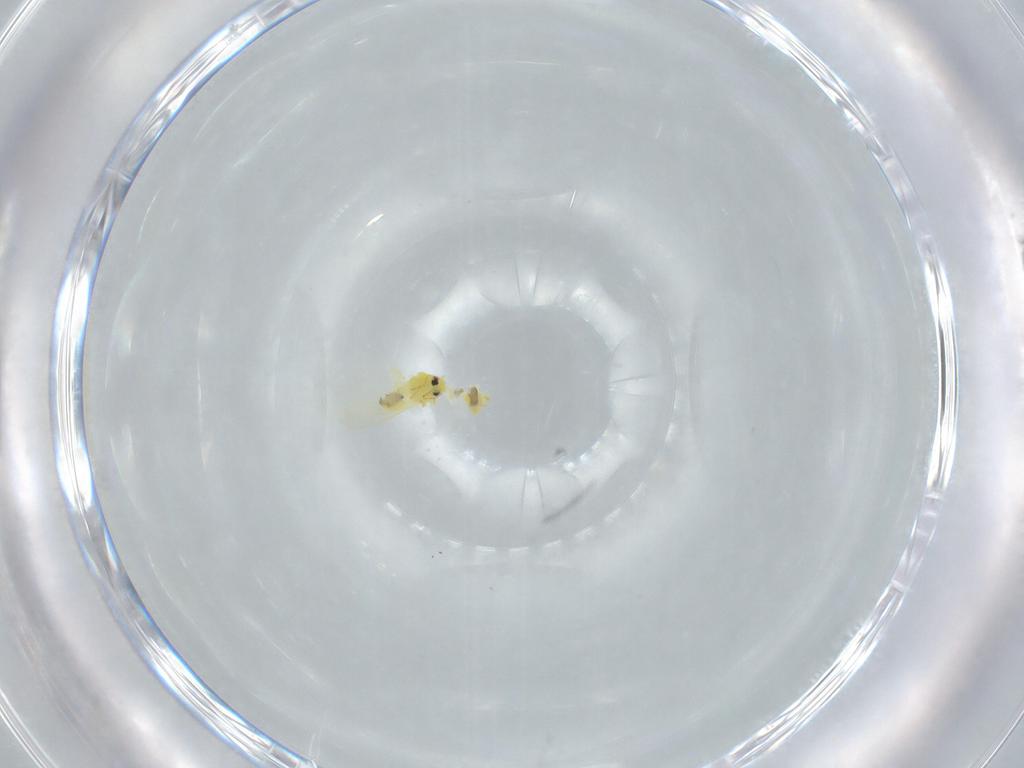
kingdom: Animalia
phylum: Arthropoda
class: Insecta
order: Hemiptera
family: Aleyrodidae
